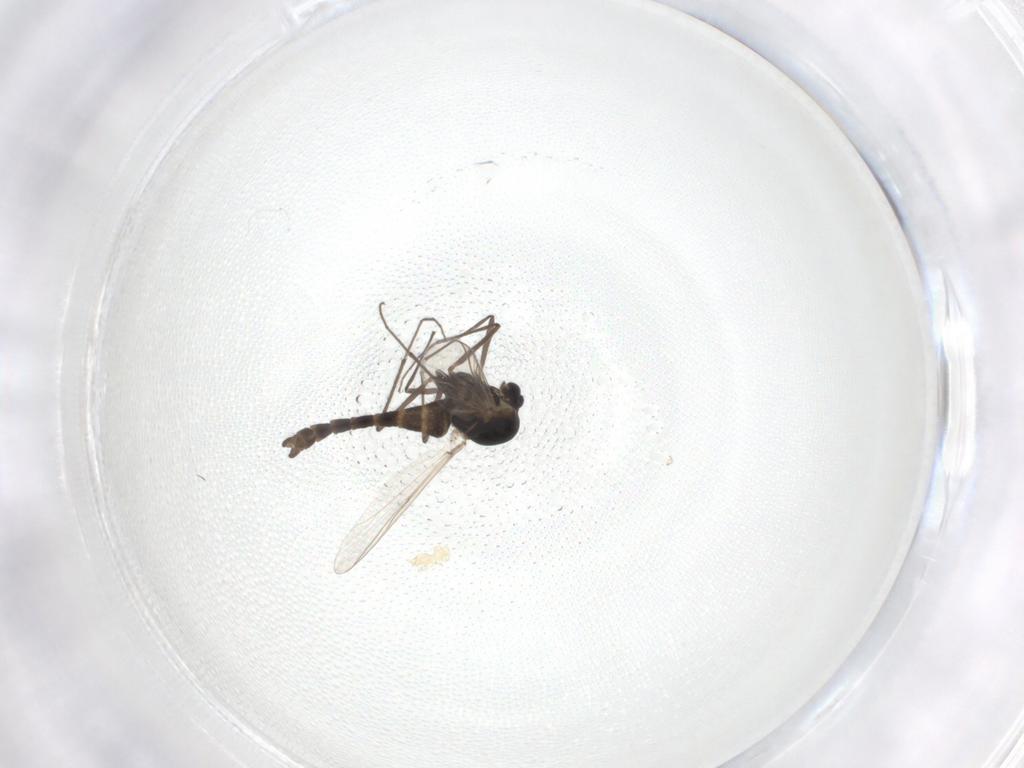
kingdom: Animalia
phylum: Arthropoda
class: Insecta
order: Diptera
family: Chironomidae
